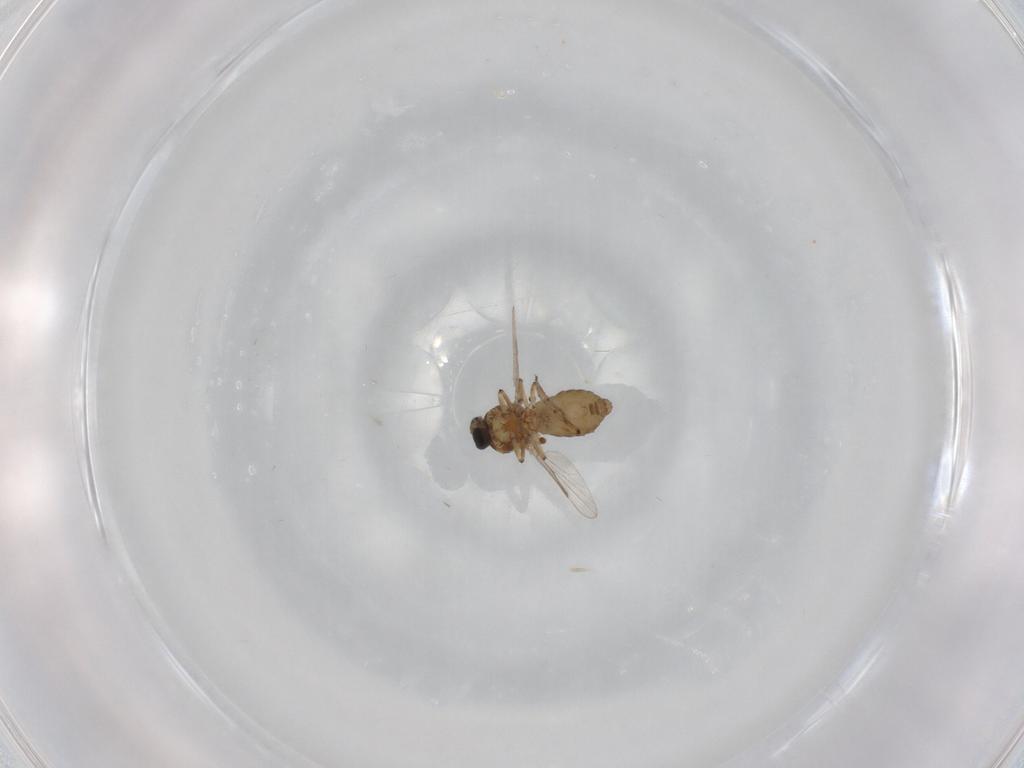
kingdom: Animalia
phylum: Arthropoda
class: Insecta
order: Diptera
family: Ceratopogonidae
